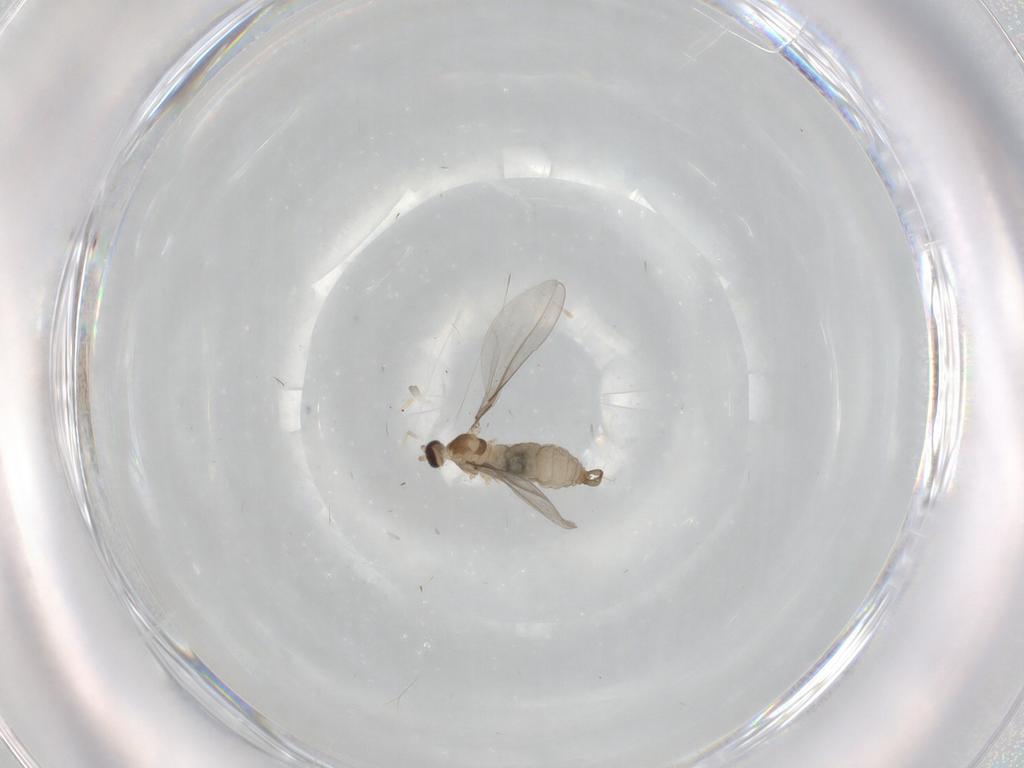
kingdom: Animalia
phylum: Arthropoda
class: Insecta
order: Diptera
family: Cecidomyiidae
